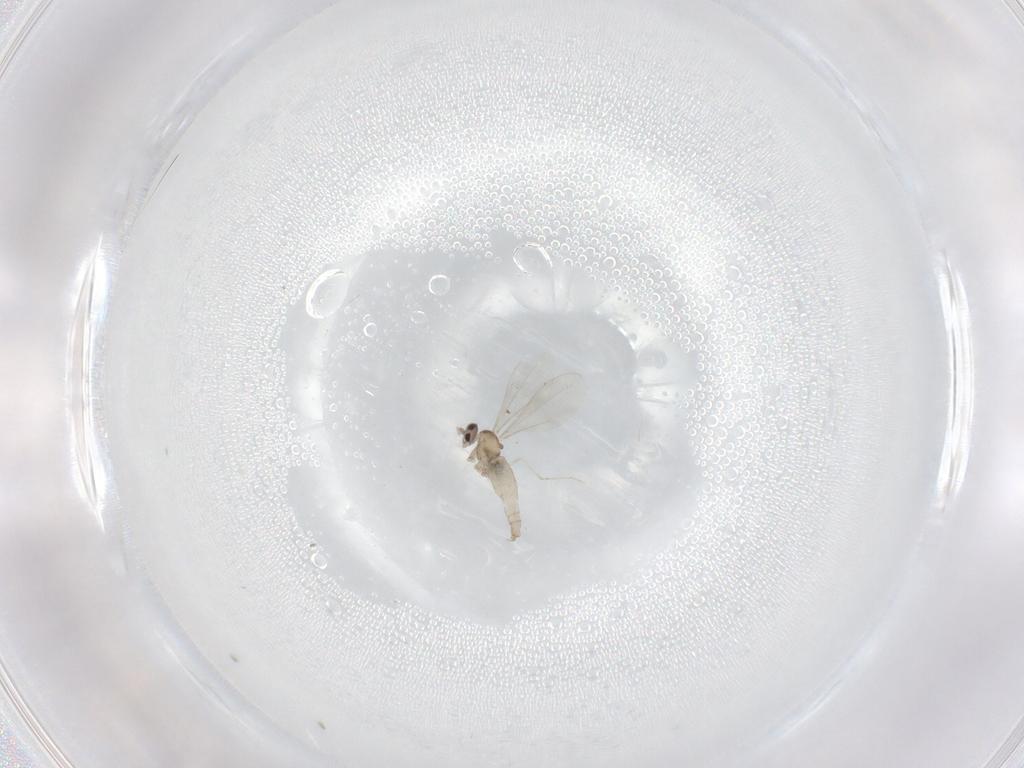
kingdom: Animalia
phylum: Arthropoda
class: Insecta
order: Diptera
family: Cecidomyiidae
